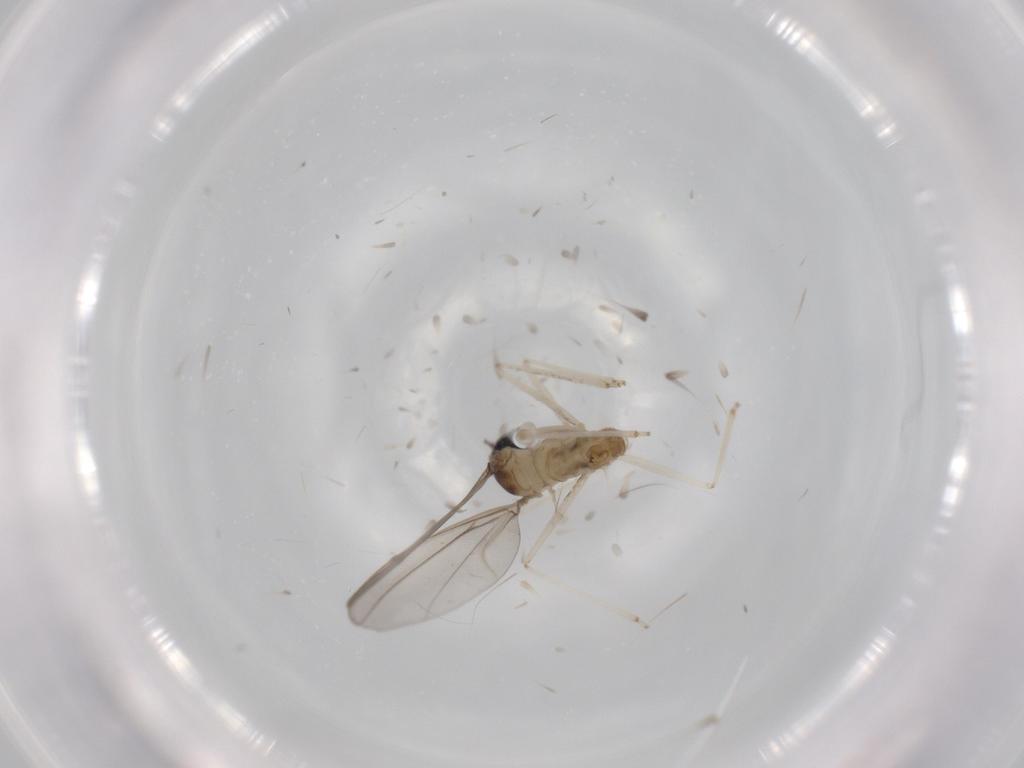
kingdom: Animalia
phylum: Arthropoda
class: Insecta
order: Diptera
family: Cecidomyiidae
